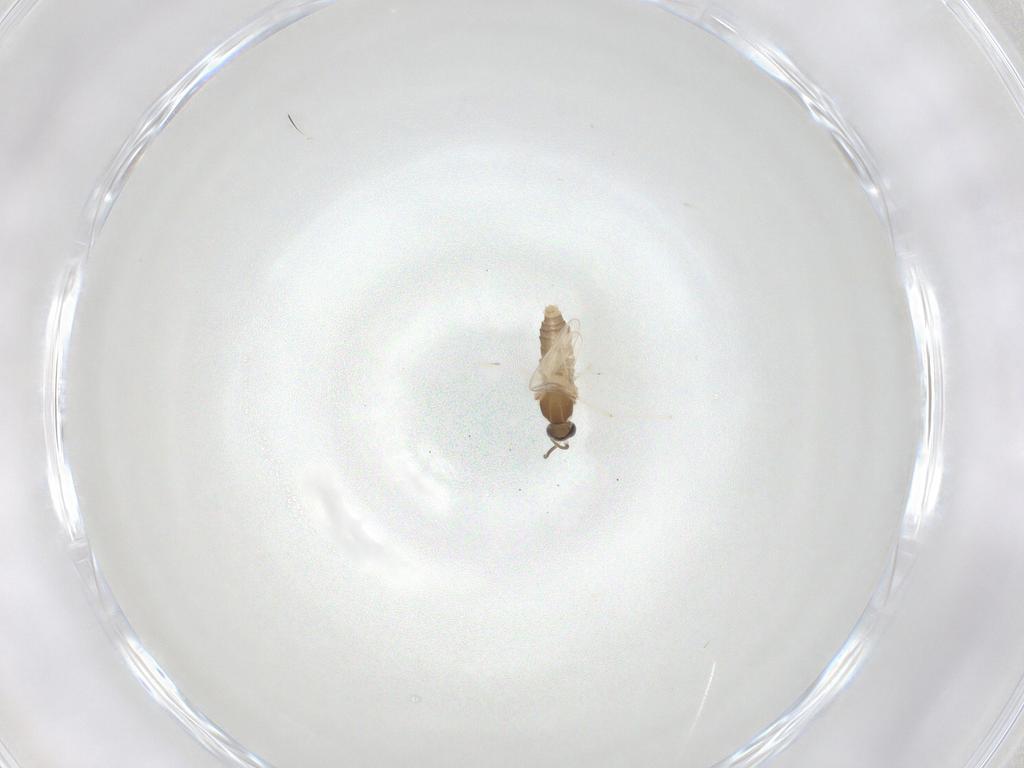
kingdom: Animalia
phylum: Arthropoda
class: Insecta
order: Diptera
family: Cecidomyiidae
